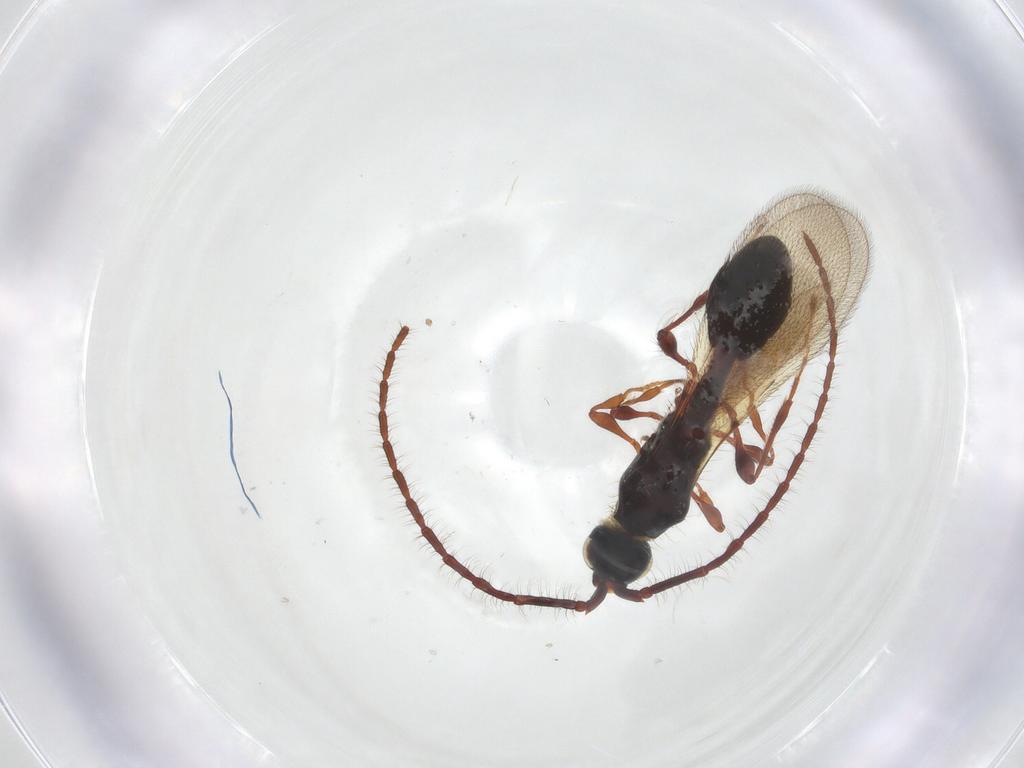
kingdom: Animalia
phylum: Arthropoda
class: Insecta
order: Hymenoptera
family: Diapriidae
